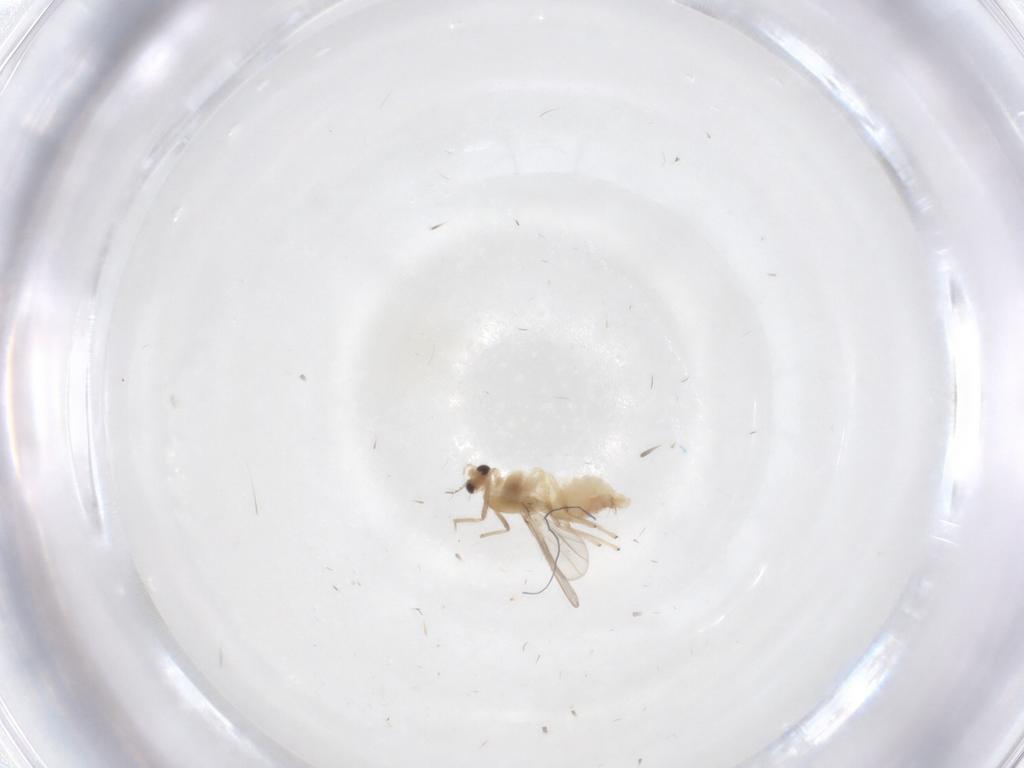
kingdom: Animalia
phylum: Arthropoda
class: Insecta
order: Diptera
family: Chironomidae
